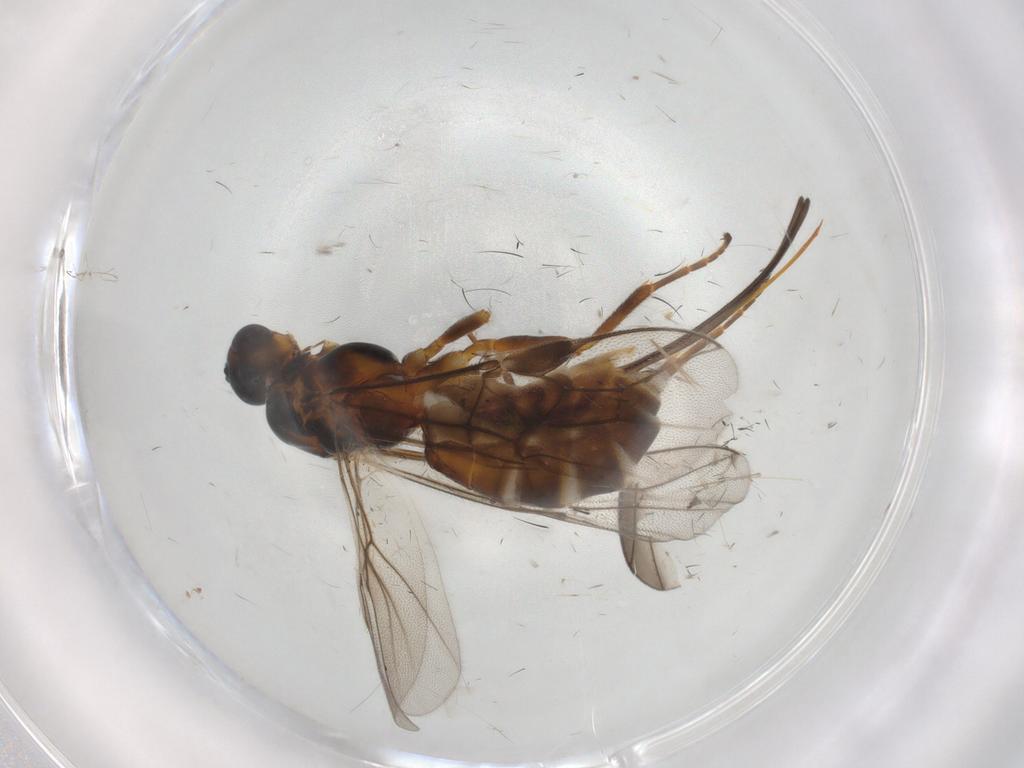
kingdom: Animalia
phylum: Arthropoda
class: Insecta
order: Hymenoptera
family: Braconidae
